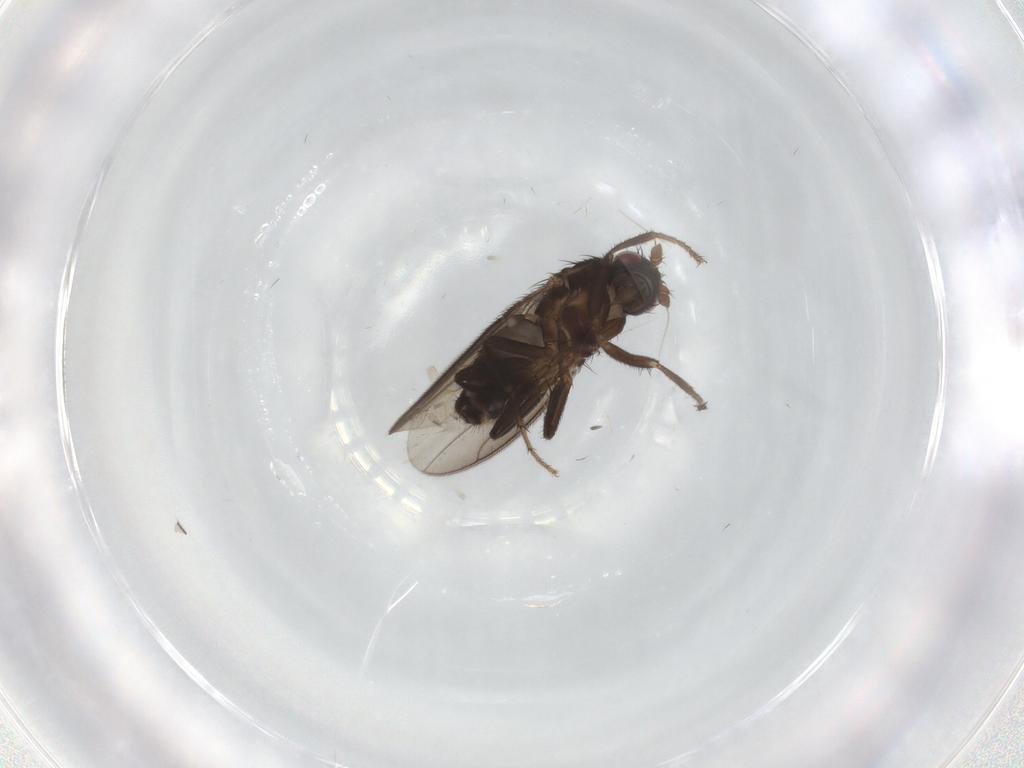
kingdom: Animalia
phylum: Arthropoda
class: Insecta
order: Diptera
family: Sphaeroceridae
